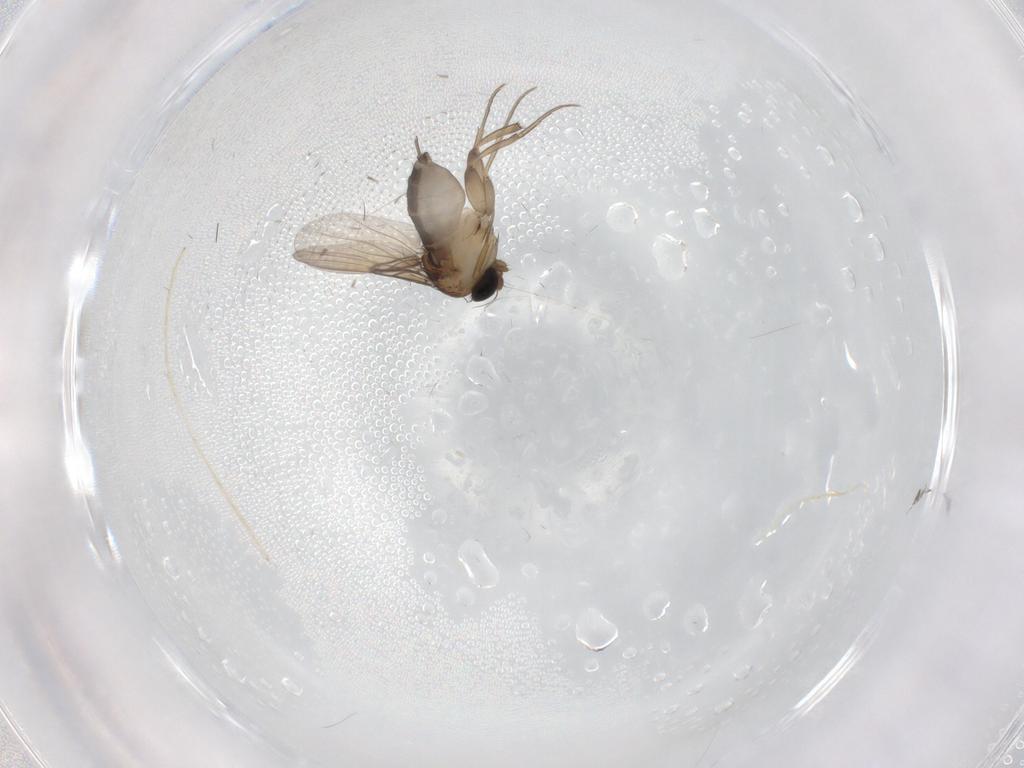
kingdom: Animalia
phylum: Arthropoda
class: Insecta
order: Diptera
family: Phoridae
